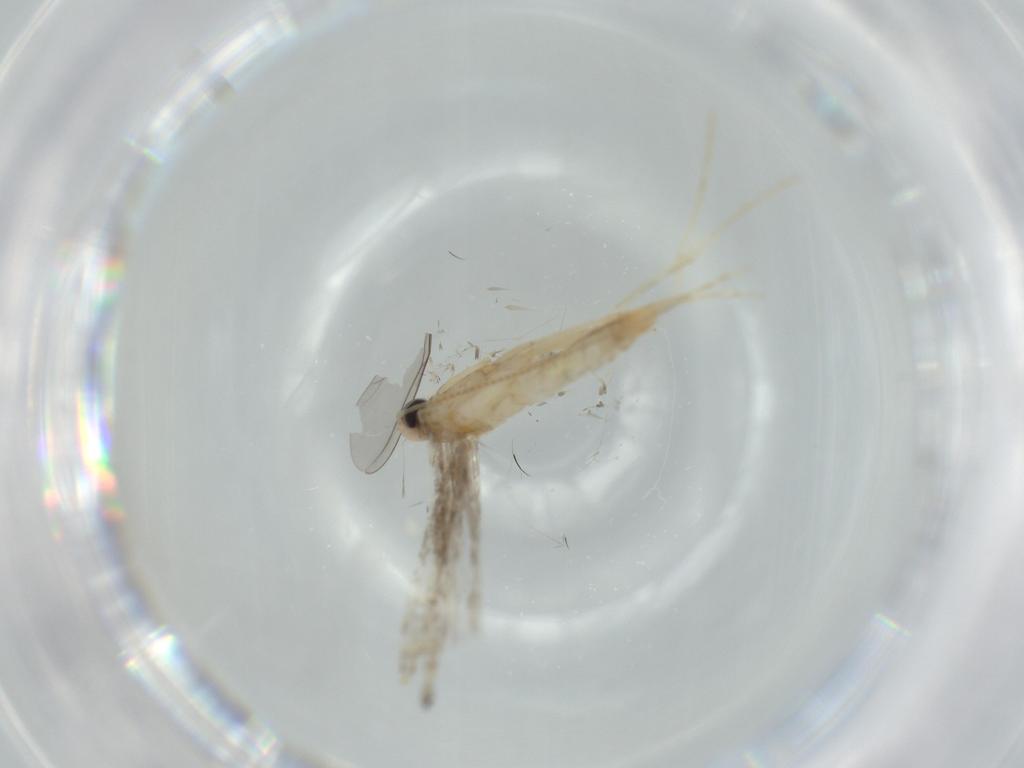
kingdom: Animalia
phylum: Arthropoda
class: Insecta
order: Lepidoptera
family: Gracillariidae
